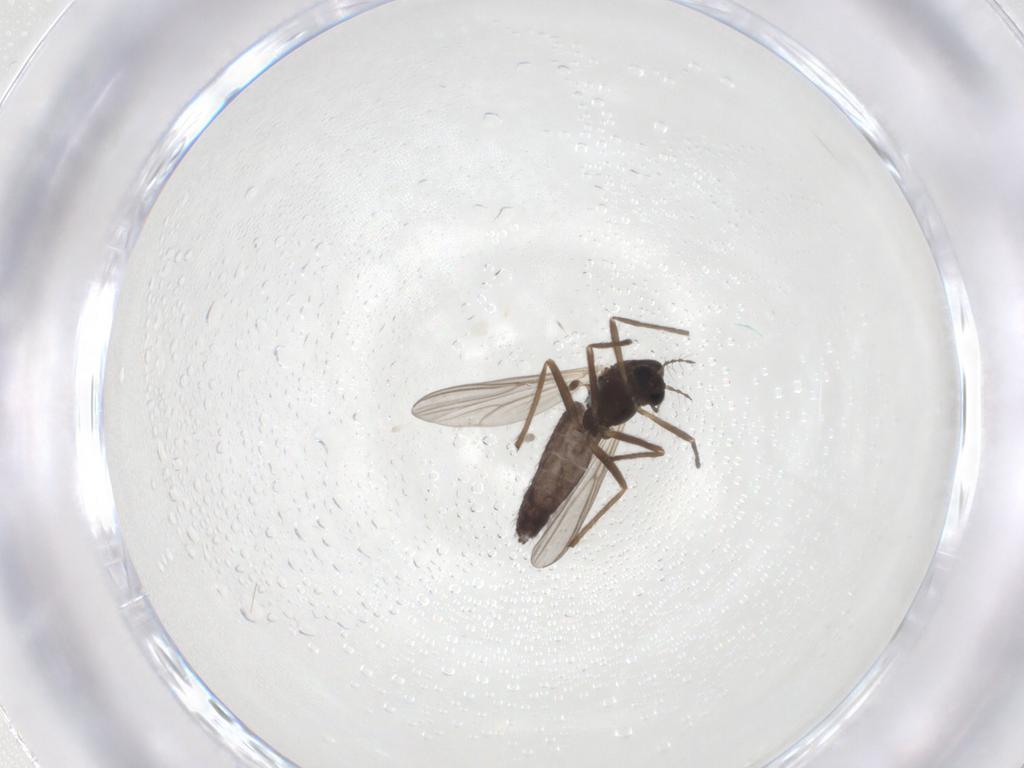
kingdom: Animalia
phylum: Arthropoda
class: Insecta
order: Diptera
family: Chironomidae
